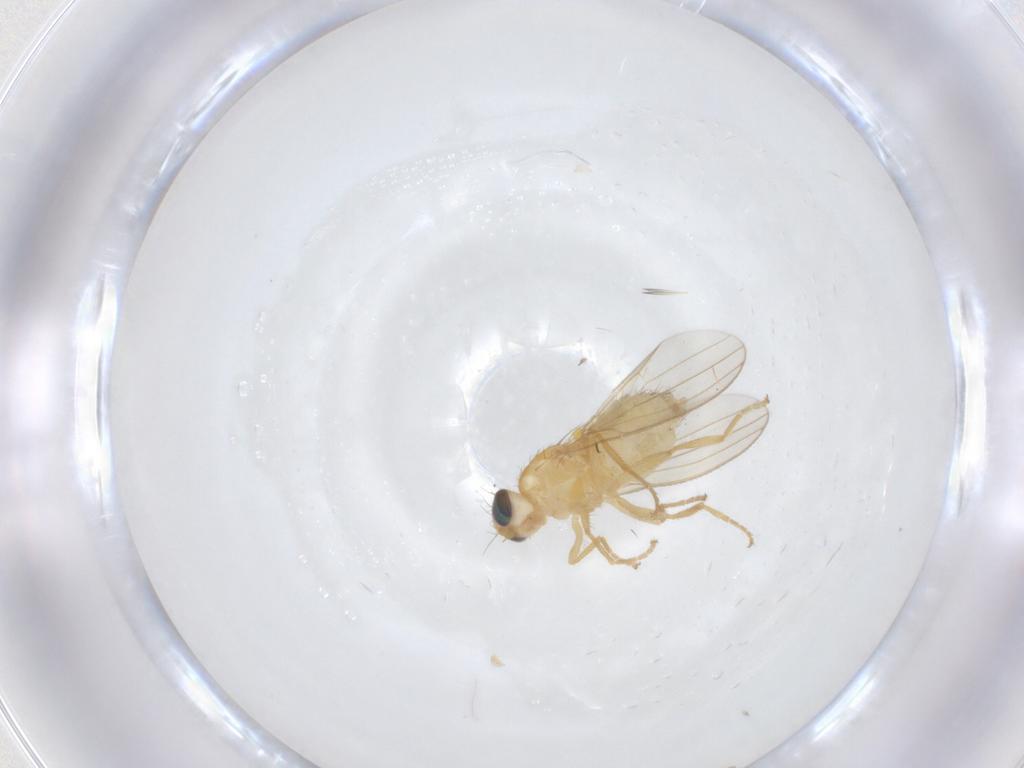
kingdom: Animalia
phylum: Arthropoda
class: Insecta
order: Diptera
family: Chyromyidae
